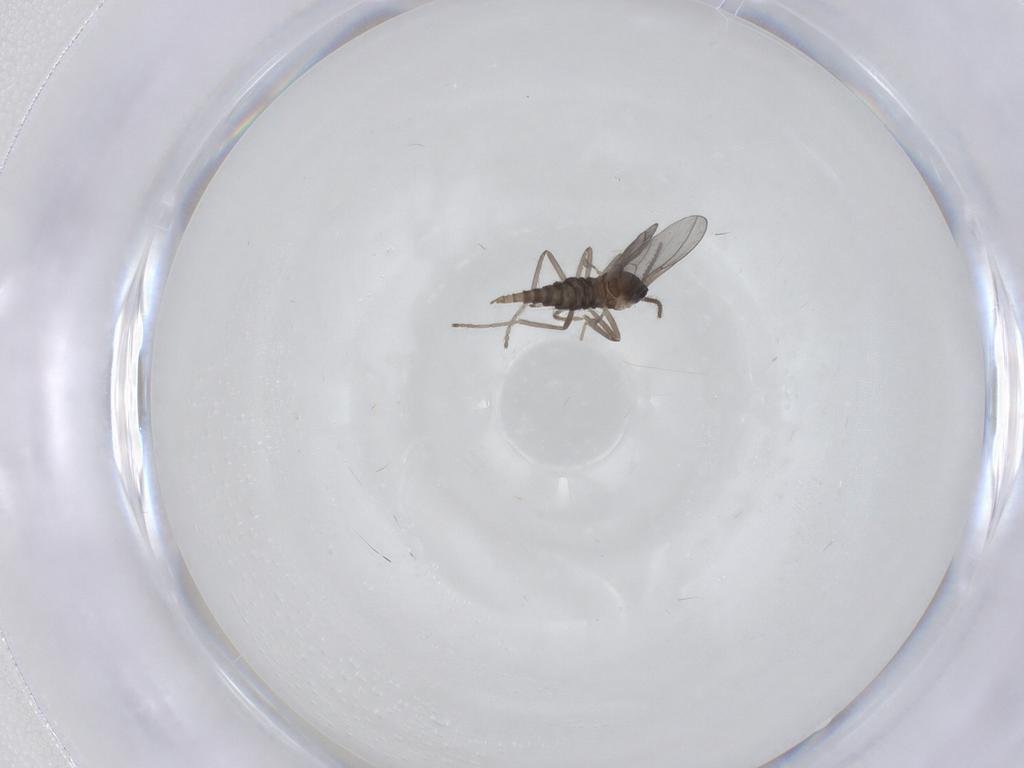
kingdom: Animalia
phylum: Arthropoda
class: Insecta
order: Diptera
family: Cecidomyiidae
